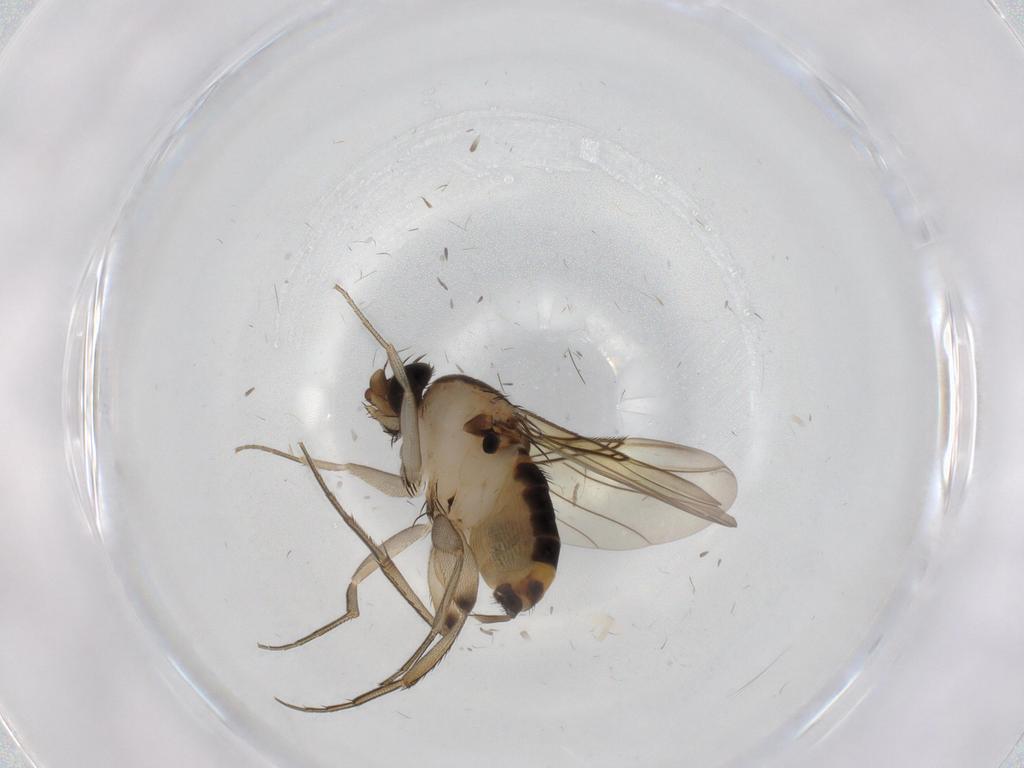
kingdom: Animalia
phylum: Arthropoda
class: Insecta
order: Diptera
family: Phoridae
